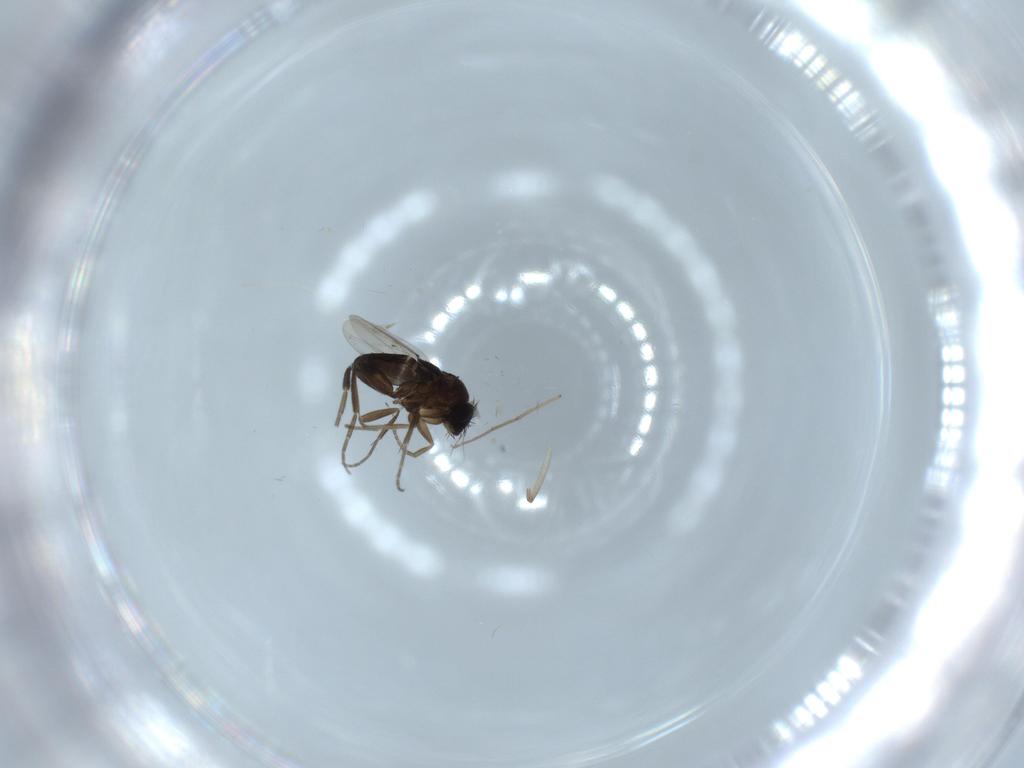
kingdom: Animalia
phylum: Arthropoda
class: Insecta
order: Diptera
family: Phoridae
